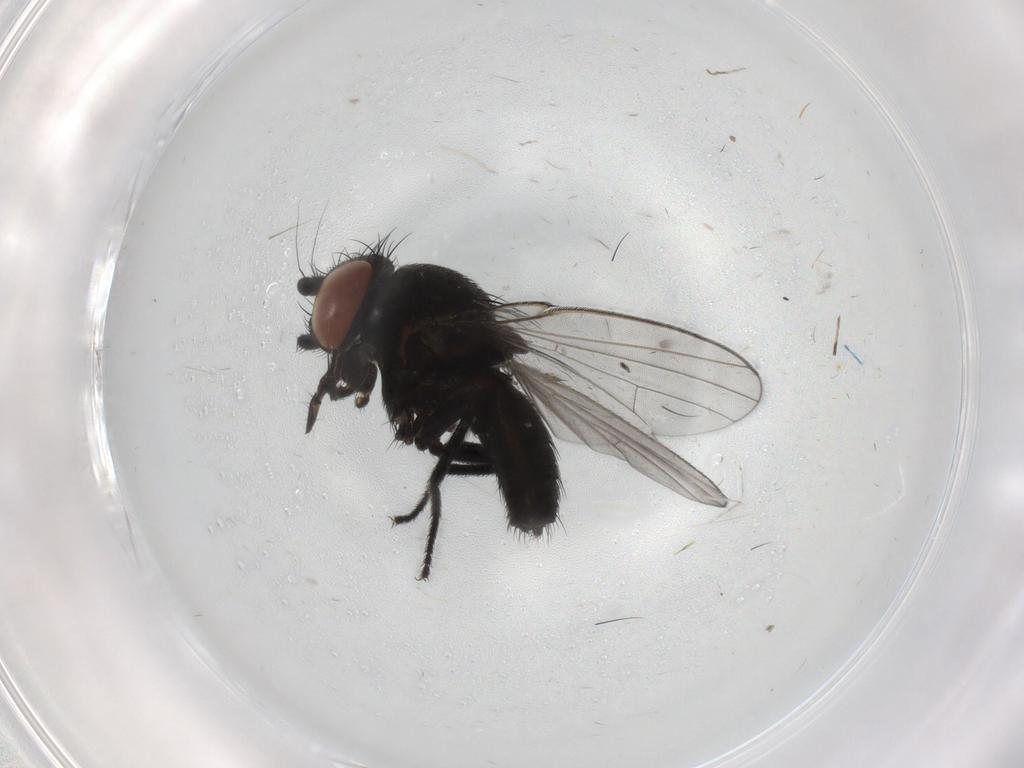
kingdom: Animalia
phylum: Arthropoda
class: Insecta
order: Diptera
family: Milichiidae
